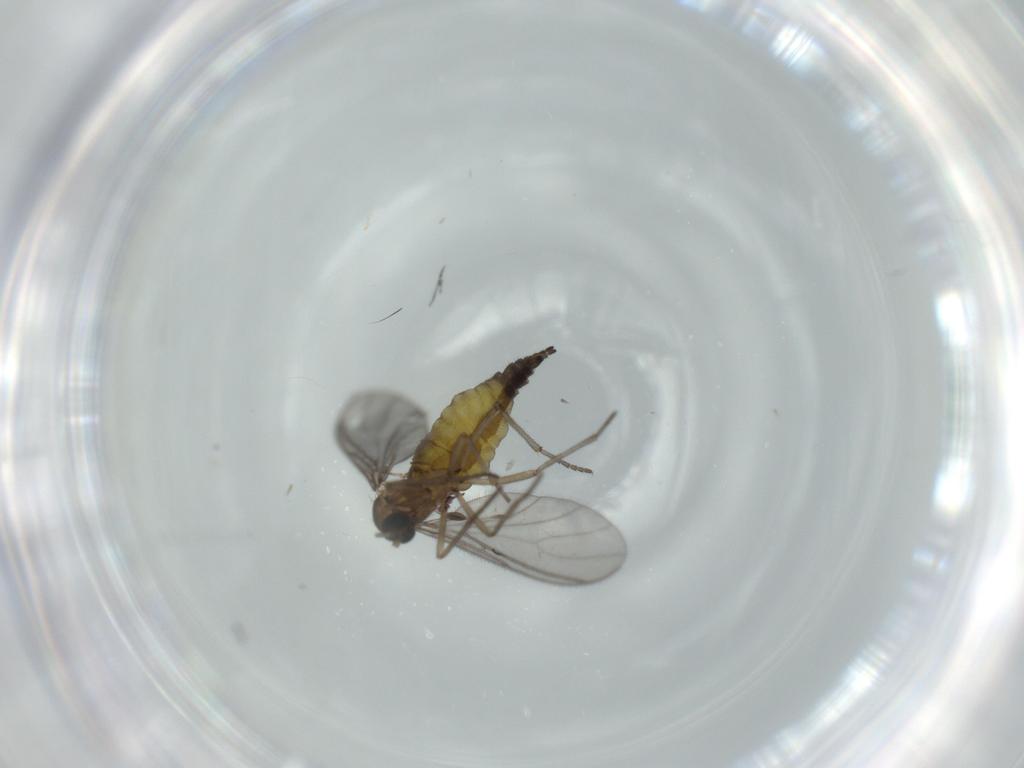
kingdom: Animalia
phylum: Arthropoda
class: Insecta
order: Diptera
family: Sciaridae
